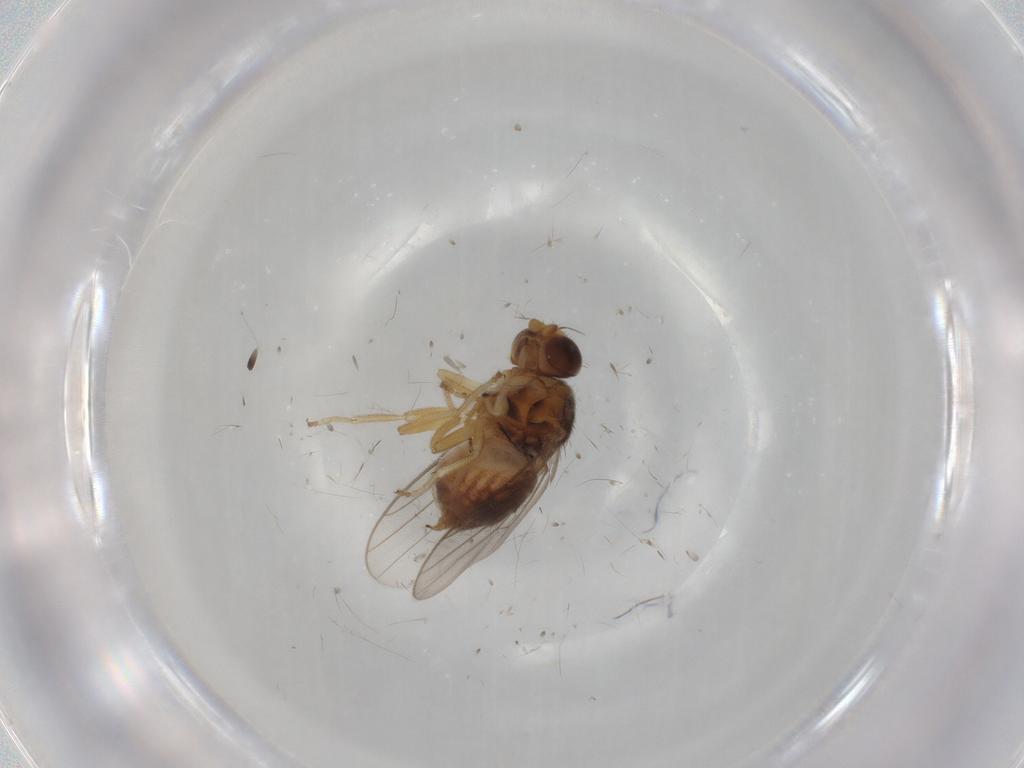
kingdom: Animalia
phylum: Arthropoda
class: Insecta
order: Diptera
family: Chloropidae
